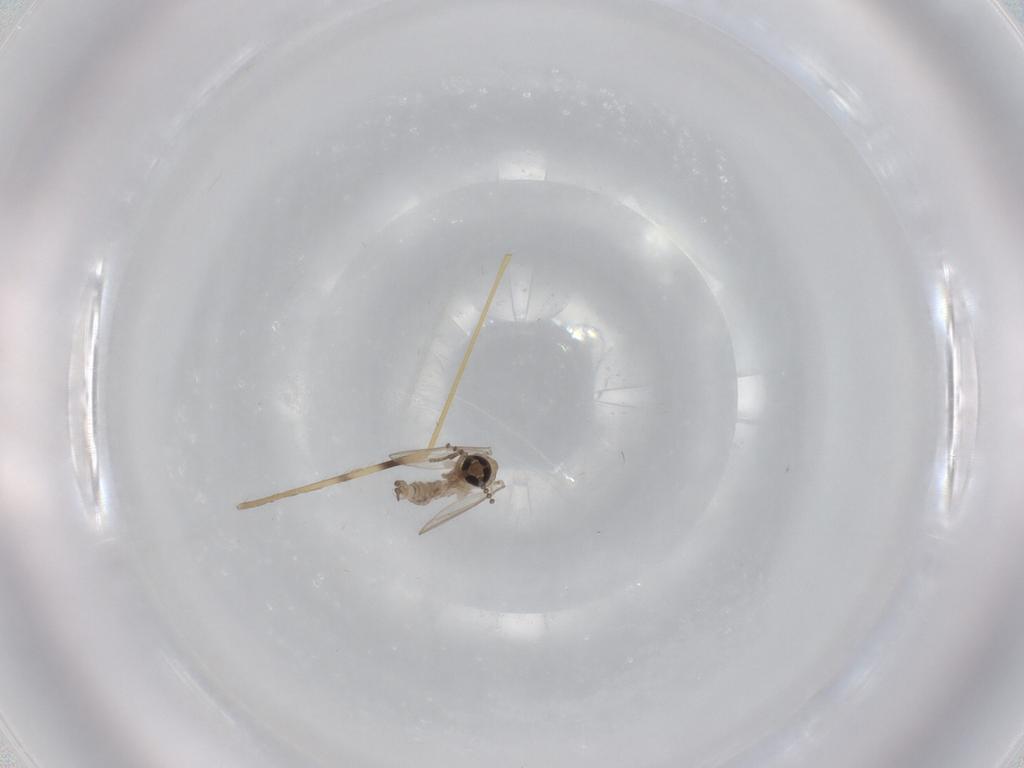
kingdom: Animalia
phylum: Arthropoda
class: Insecta
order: Diptera
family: Limoniidae
